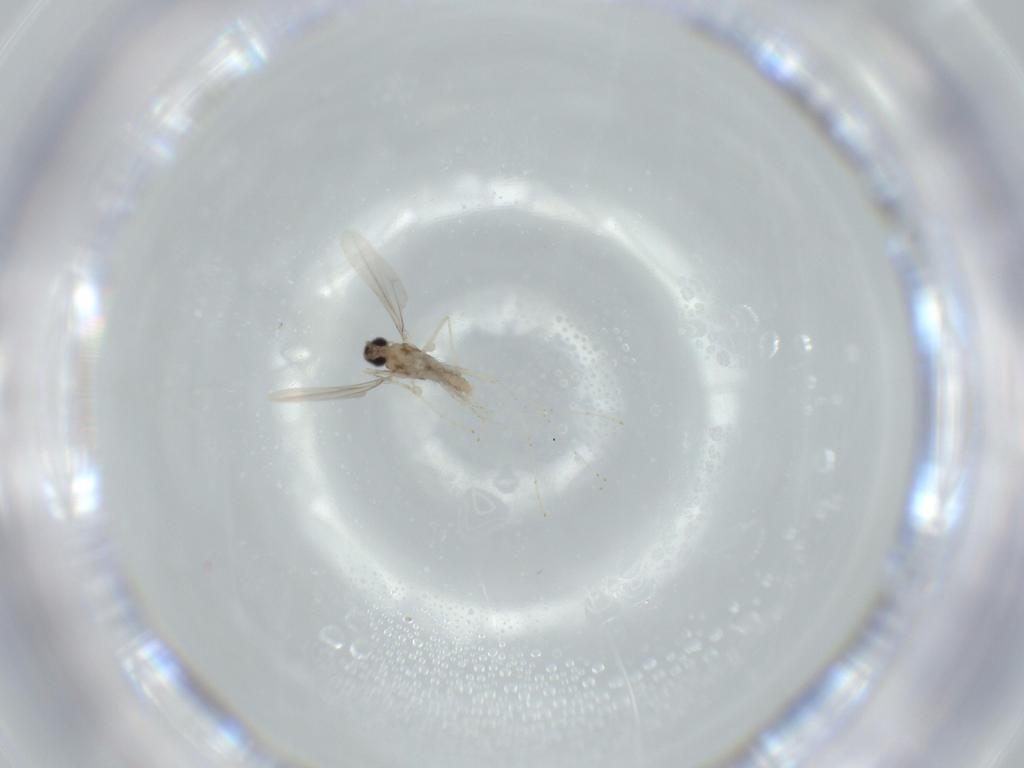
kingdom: Animalia
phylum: Arthropoda
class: Insecta
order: Diptera
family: Cecidomyiidae
